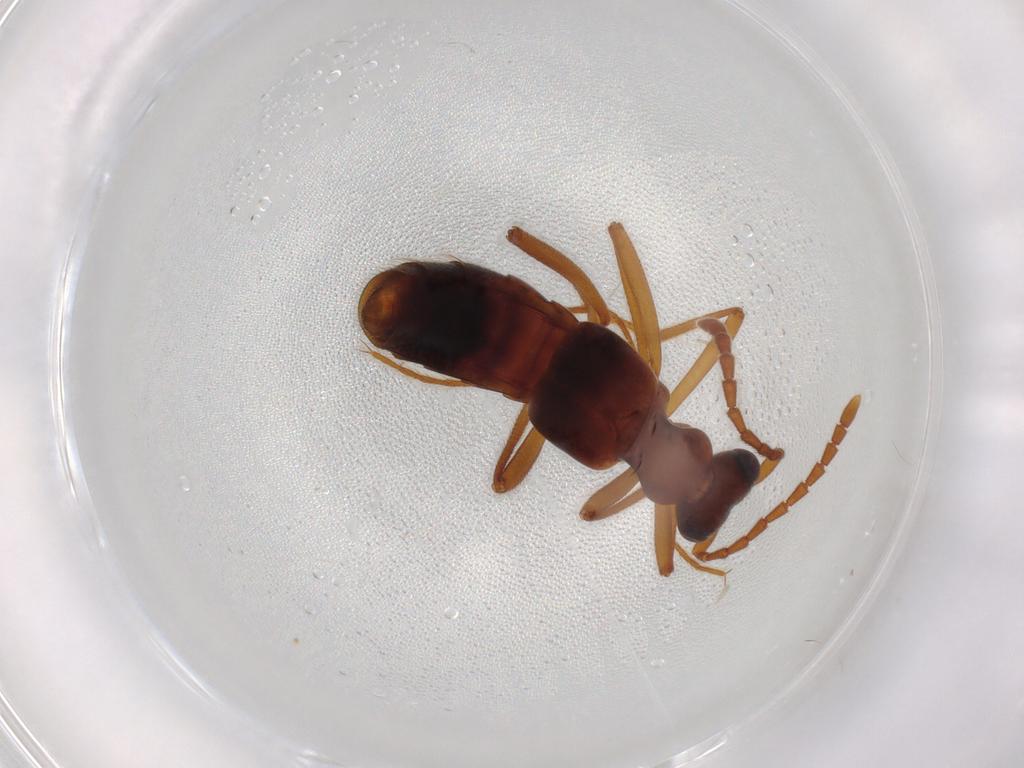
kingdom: Animalia
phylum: Arthropoda
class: Insecta
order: Coleoptera
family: Staphylinidae
